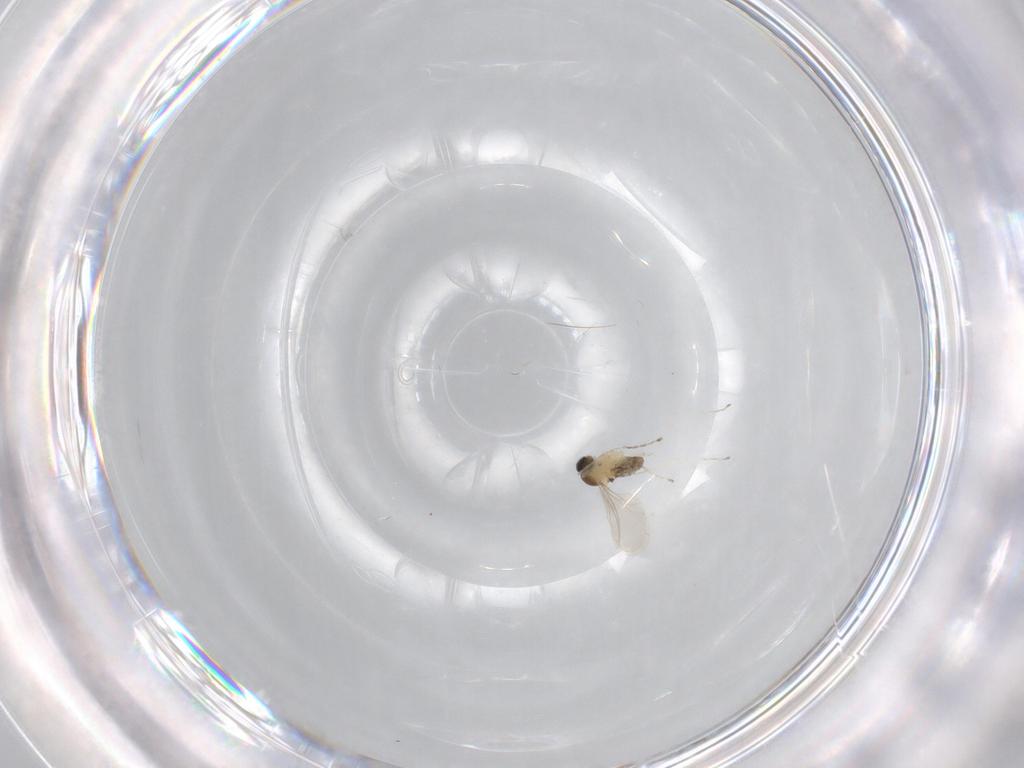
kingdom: Animalia
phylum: Arthropoda
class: Insecta
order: Diptera
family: Cecidomyiidae
